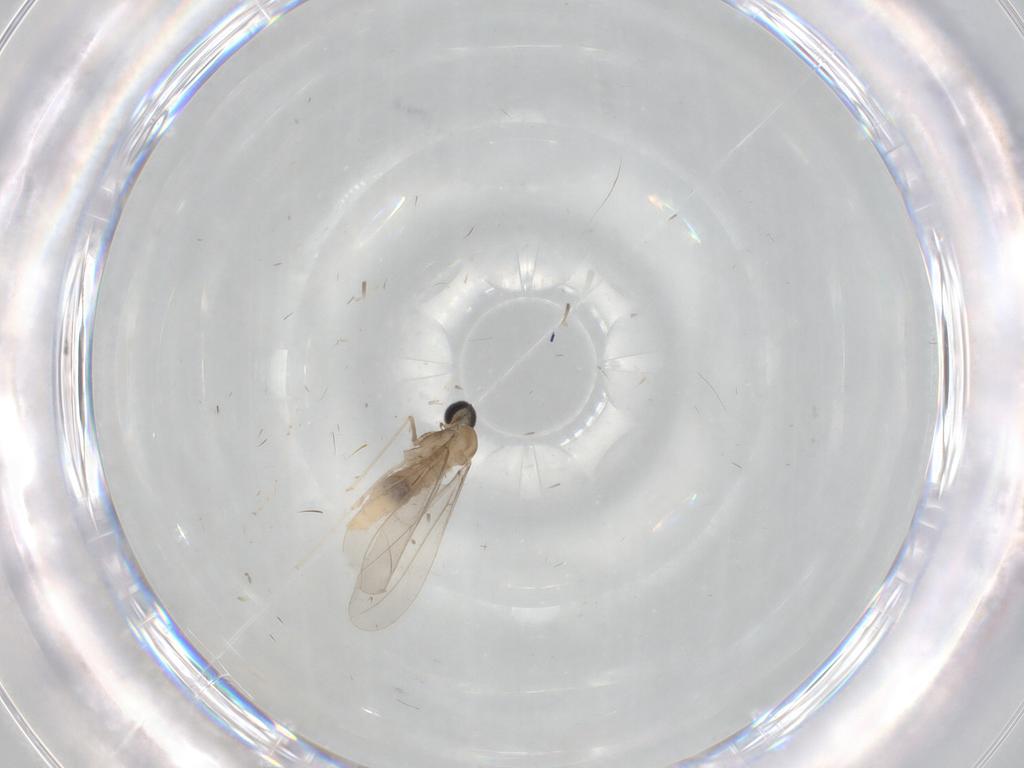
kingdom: Animalia
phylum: Arthropoda
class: Insecta
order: Diptera
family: Cecidomyiidae
